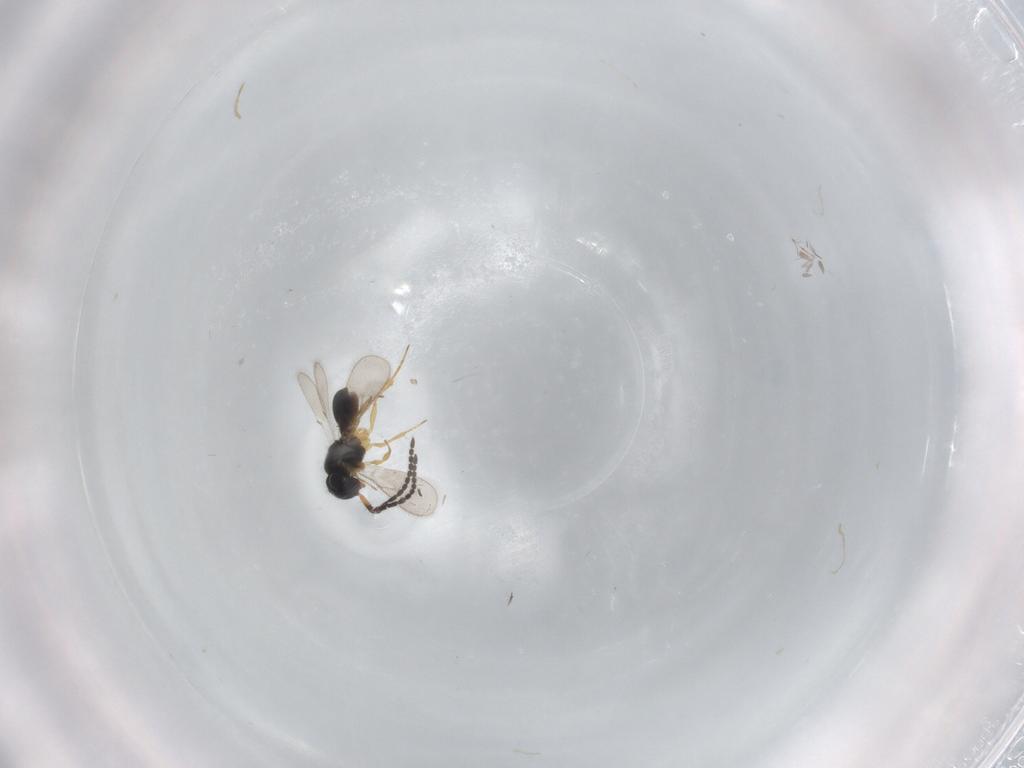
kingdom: Animalia
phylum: Arthropoda
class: Insecta
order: Hymenoptera
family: Scelionidae
